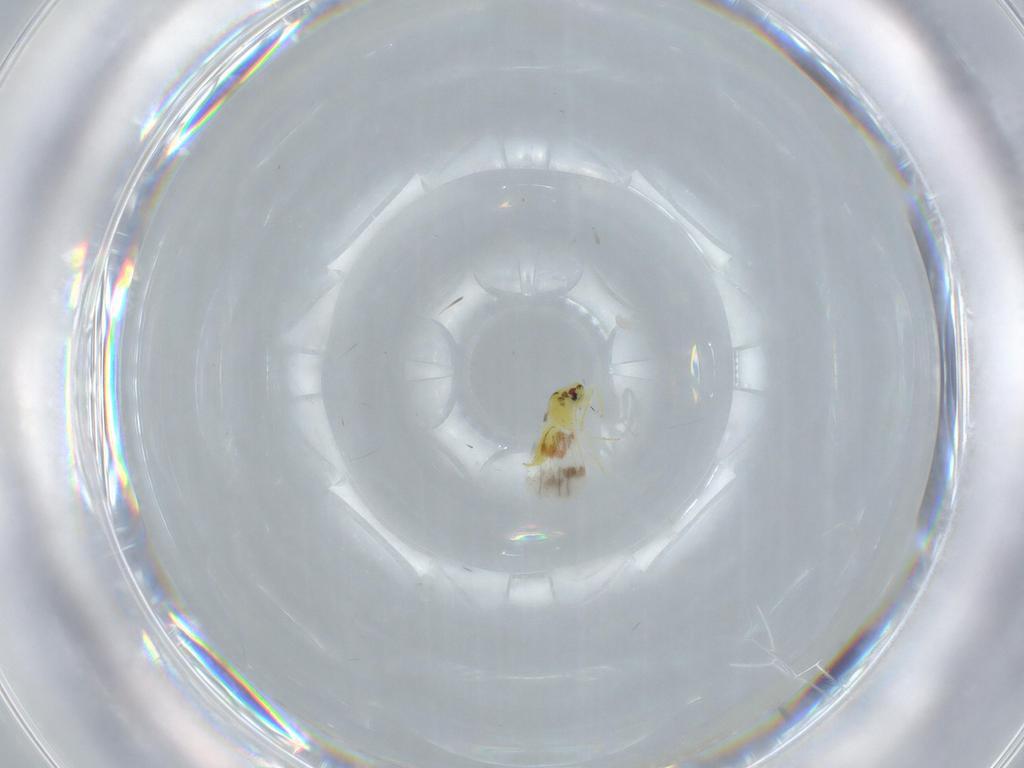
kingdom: Animalia
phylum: Arthropoda
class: Insecta
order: Hemiptera
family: Aleyrodidae
